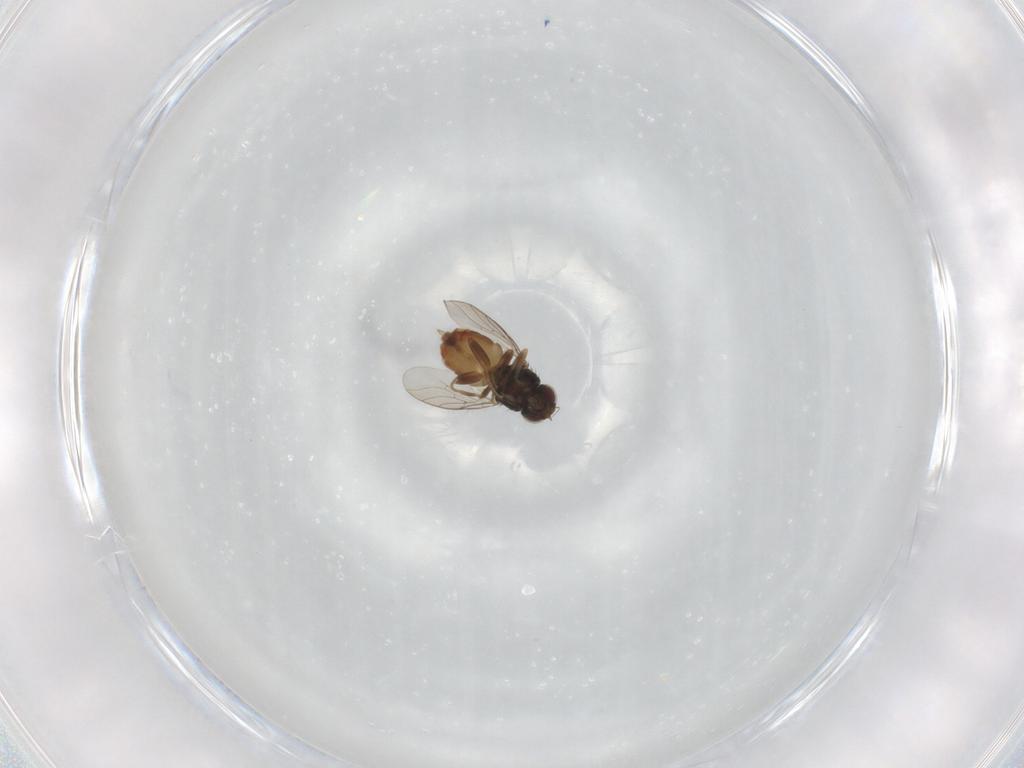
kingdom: Animalia
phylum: Arthropoda
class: Insecta
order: Diptera
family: Chloropidae
